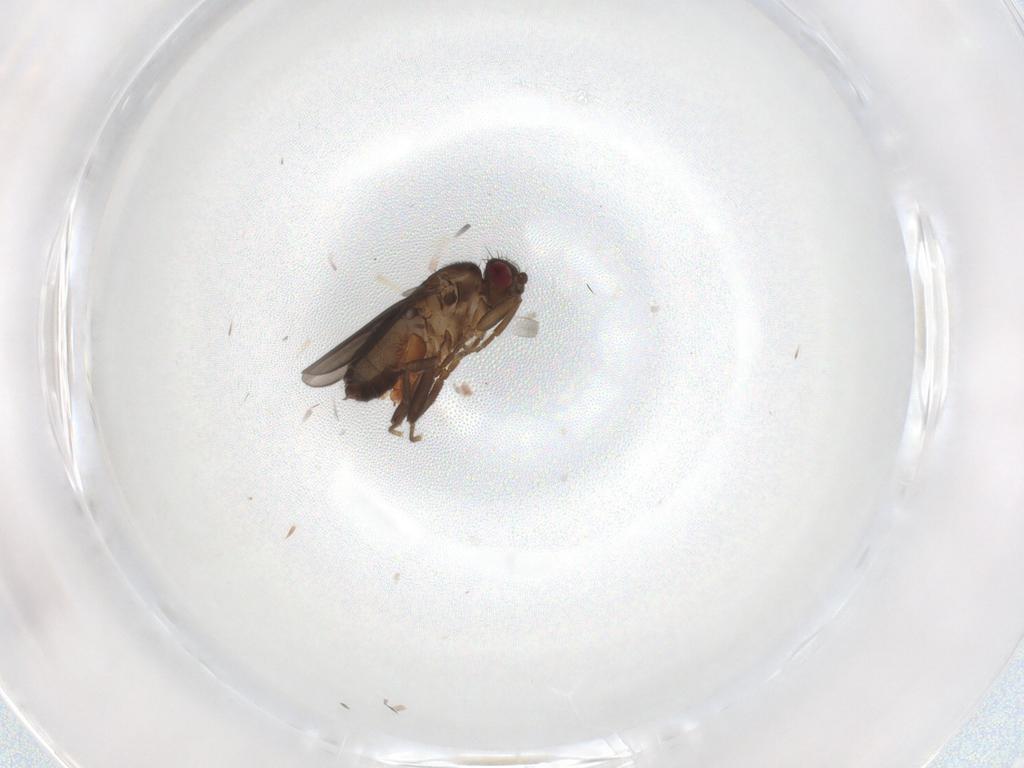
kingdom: Animalia
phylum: Arthropoda
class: Insecta
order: Diptera
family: Sphaeroceridae
